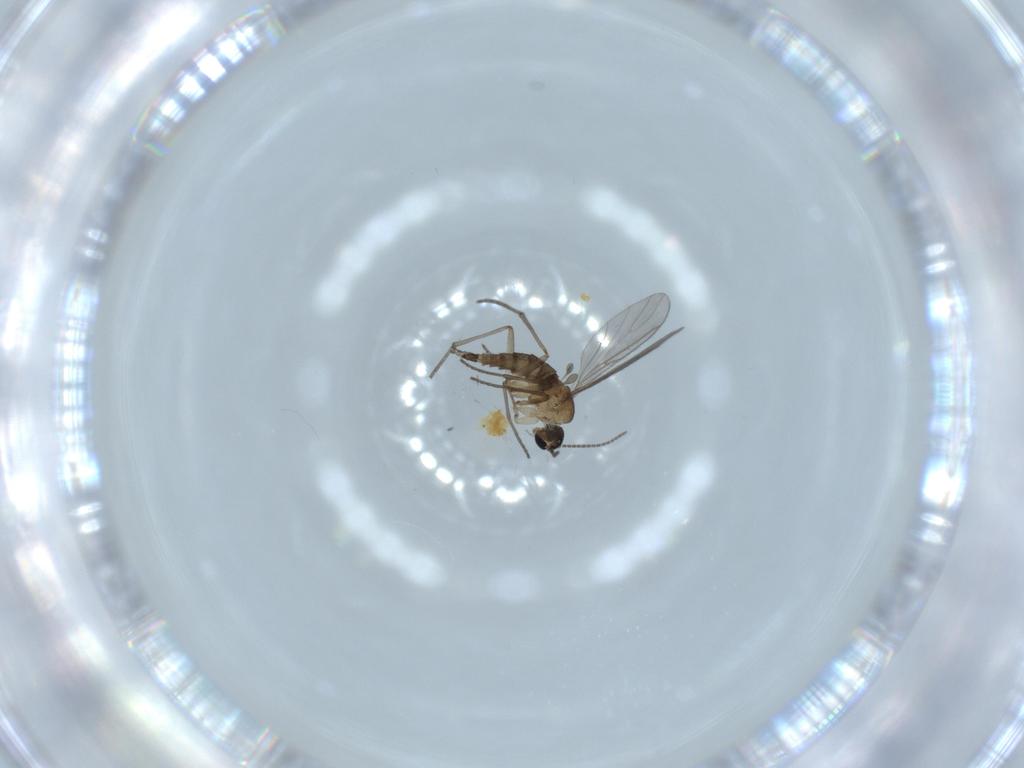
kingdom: Animalia
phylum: Arthropoda
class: Insecta
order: Diptera
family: Sciaridae
